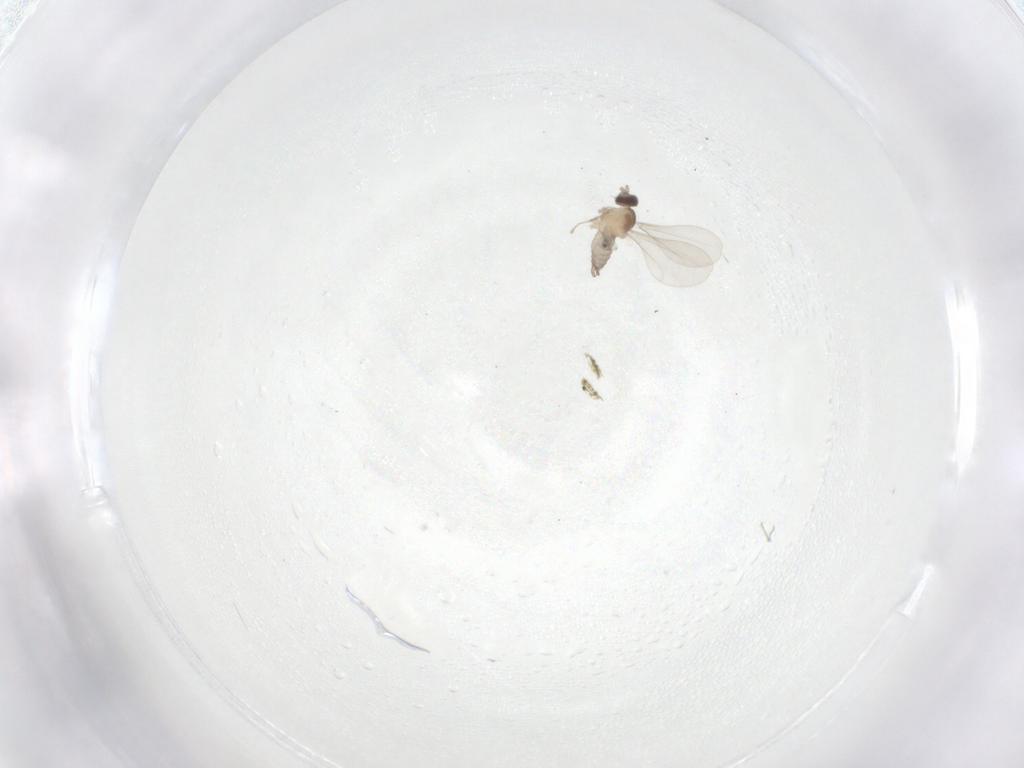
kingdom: Animalia
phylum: Arthropoda
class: Insecta
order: Diptera
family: Cecidomyiidae
